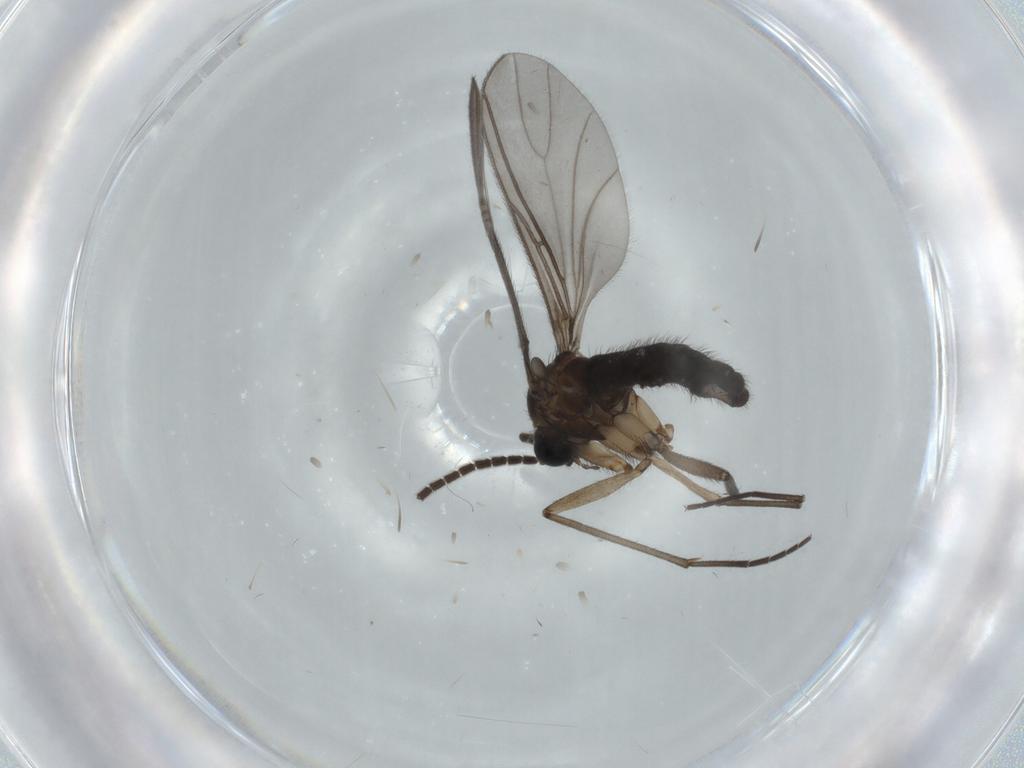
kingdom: Animalia
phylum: Arthropoda
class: Insecta
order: Diptera
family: Sciaridae
